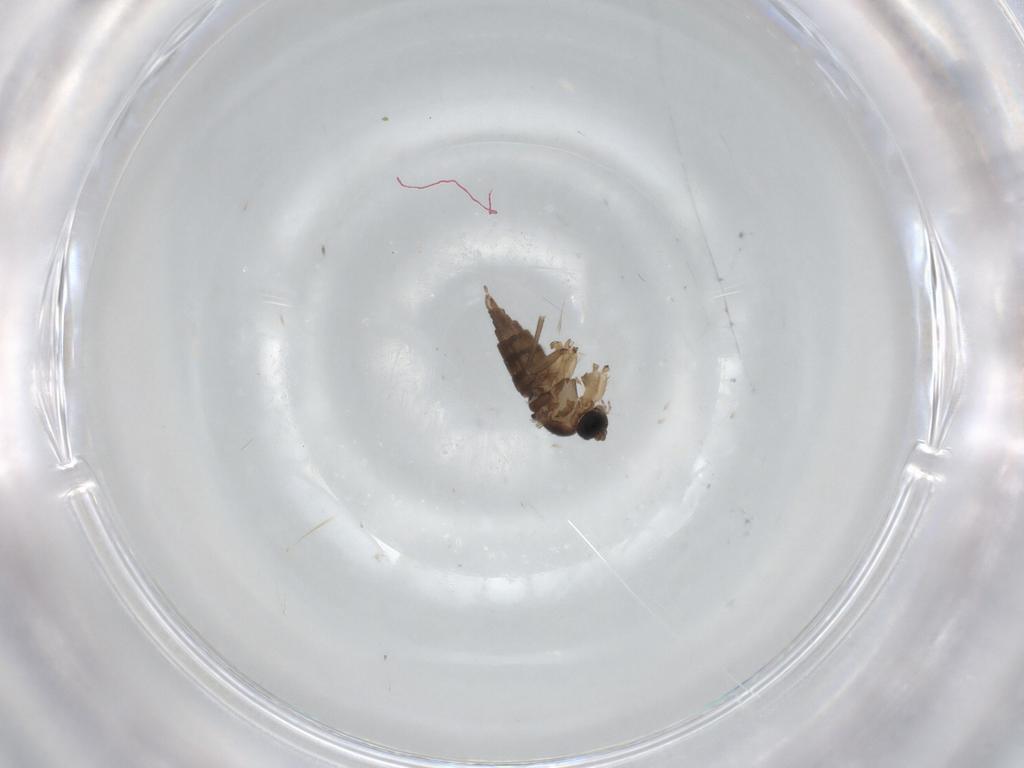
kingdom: Animalia
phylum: Arthropoda
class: Insecta
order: Diptera
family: Sciaridae
